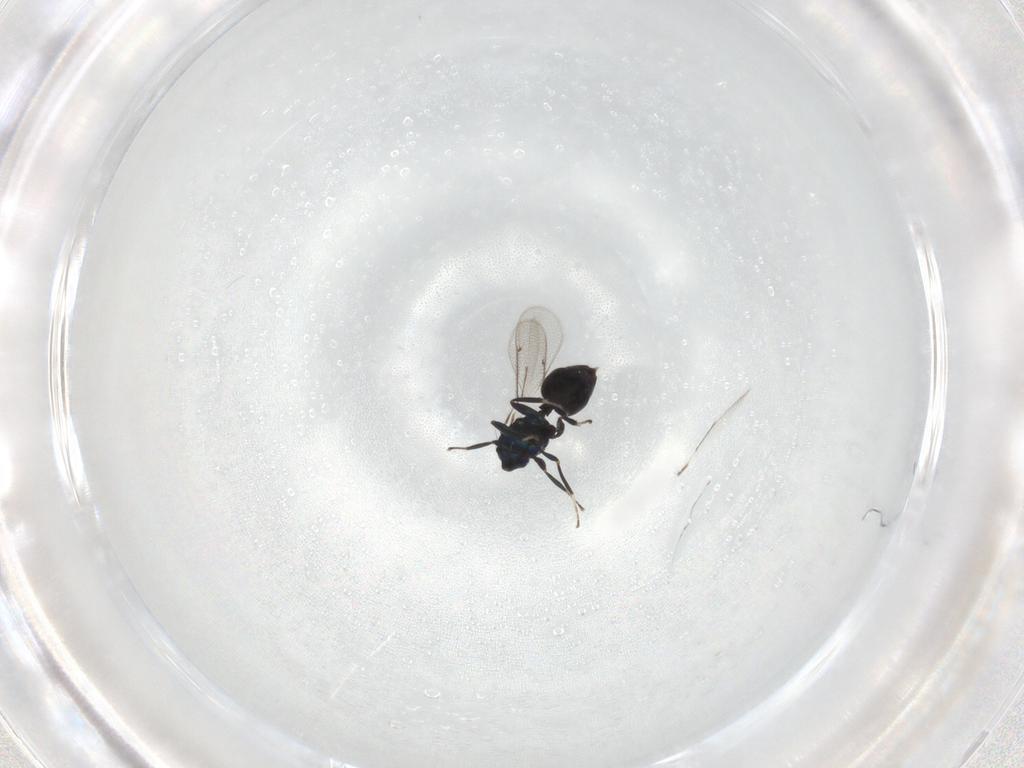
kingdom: Animalia
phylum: Arthropoda
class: Insecta
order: Hymenoptera
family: Eulophidae
